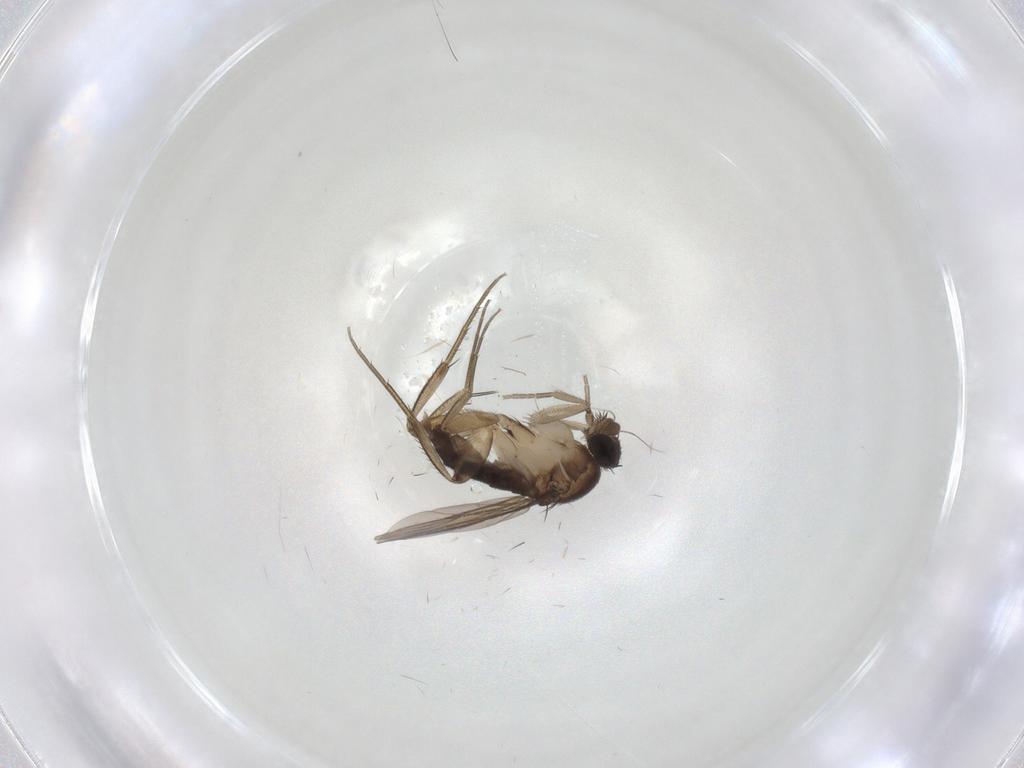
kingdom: Animalia
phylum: Arthropoda
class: Insecta
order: Diptera
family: Phoridae
